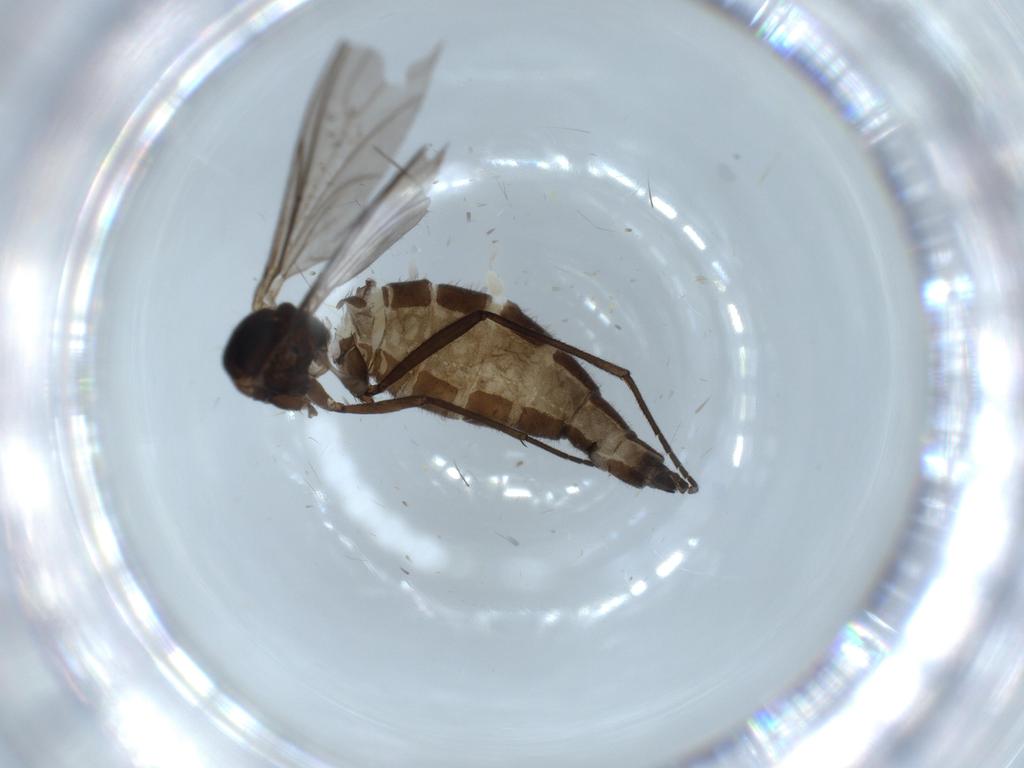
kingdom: Animalia
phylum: Arthropoda
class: Insecta
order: Diptera
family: Sciaridae
